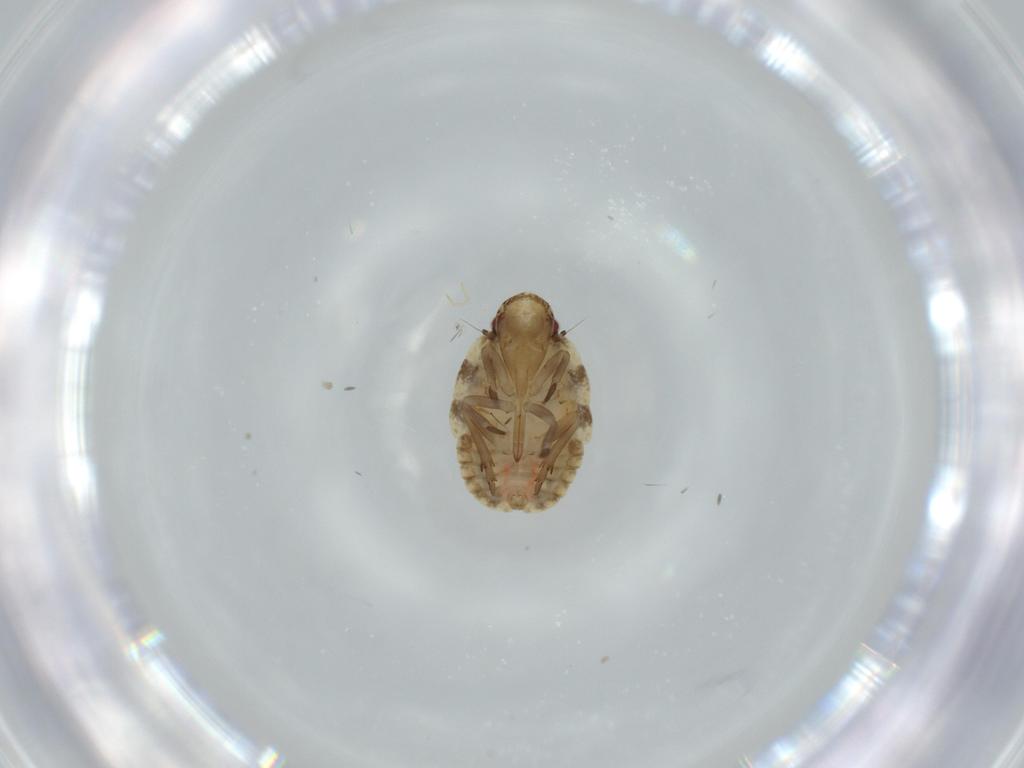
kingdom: Animalia
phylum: Arthropoda
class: Insecta
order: Hemiptera
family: Flatidae
